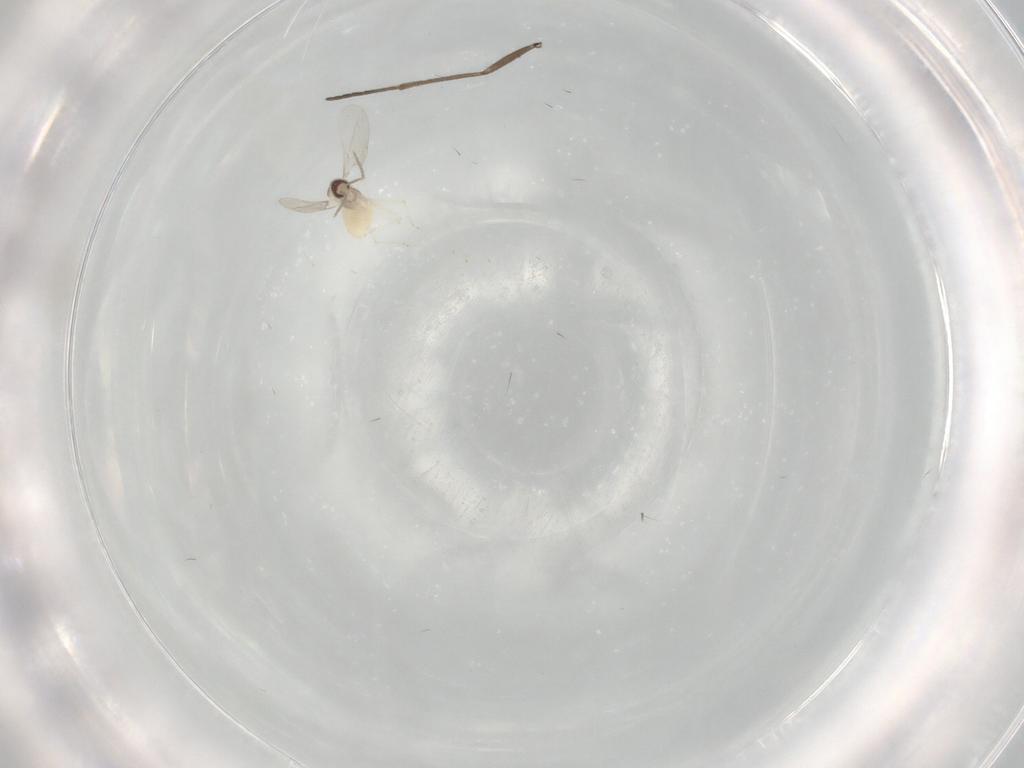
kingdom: Animalia
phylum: Arthropoda
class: Insecta
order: Diptera
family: Cecidomyiidae
